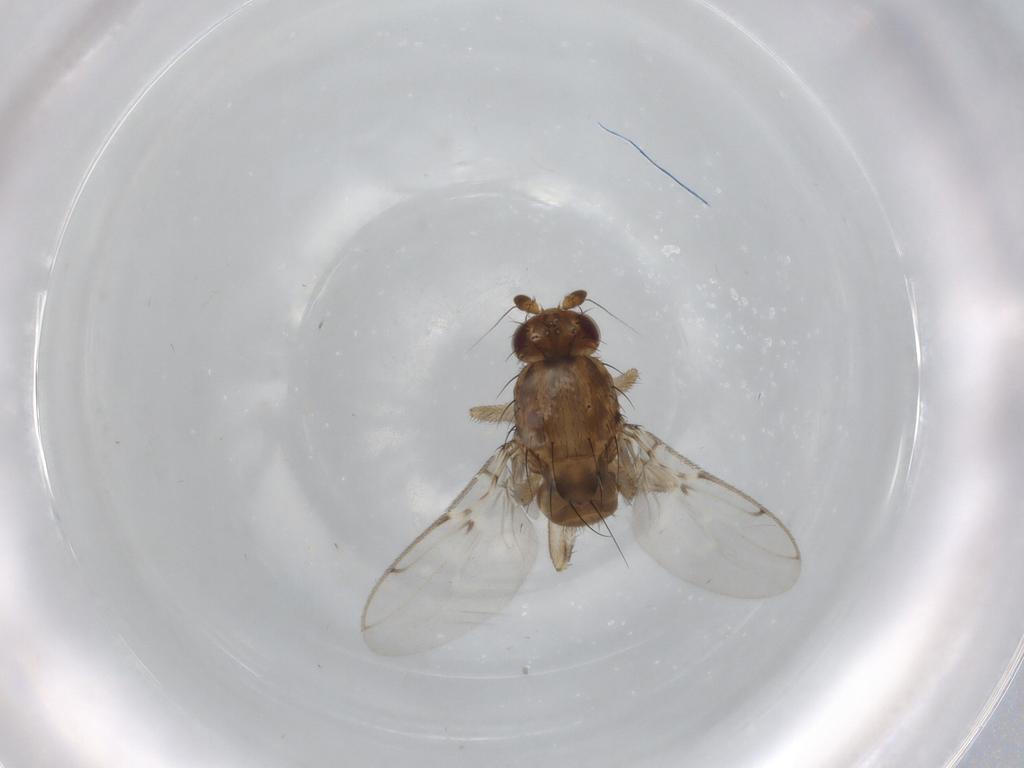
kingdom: Animalia
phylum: Arthropoda
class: Insecta
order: Diptera
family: Sphaeroceridae
